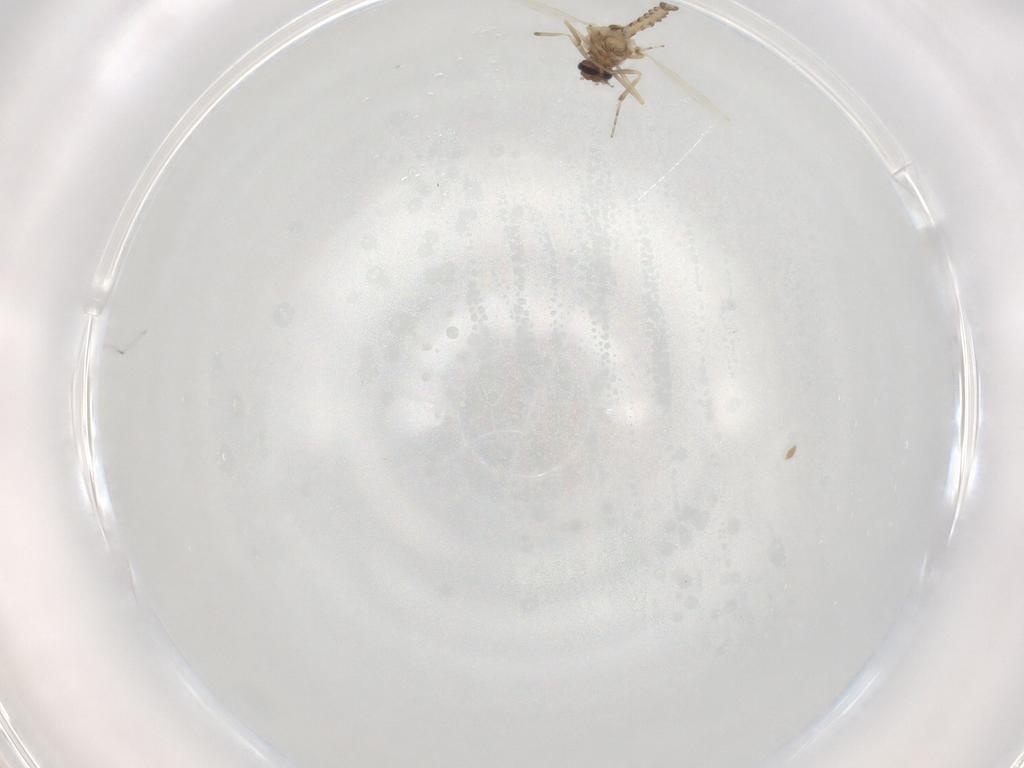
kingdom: Animalia
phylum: Arthropoda
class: Insecta
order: Diptera
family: Ceratopogonidae
